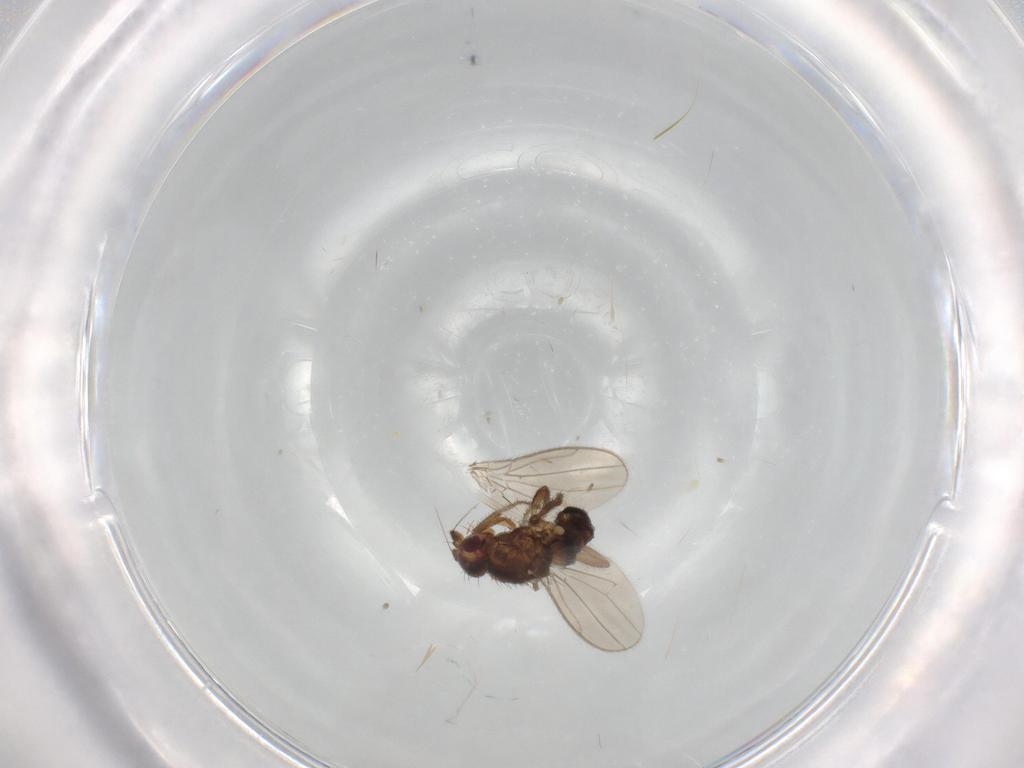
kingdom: Animalia
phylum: Arthropoda
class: Insecta
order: Diptera
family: Sphaeroceridae
